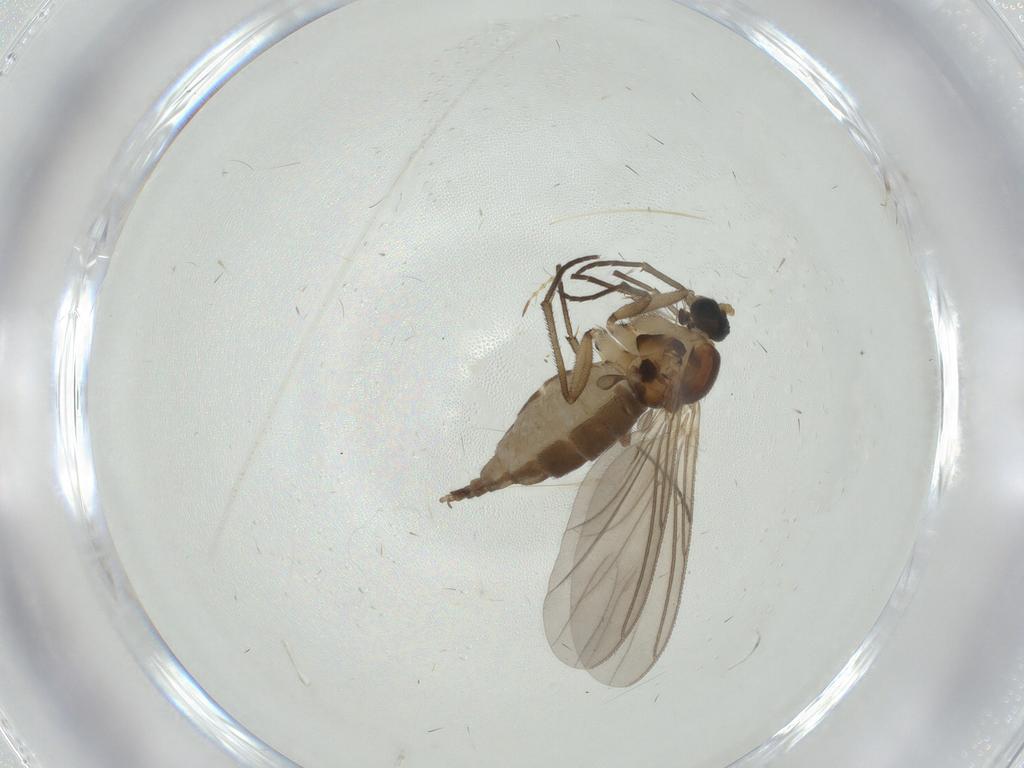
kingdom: Animalia
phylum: Arthropoda
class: Insecta
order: Diptera
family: Sciaridae
